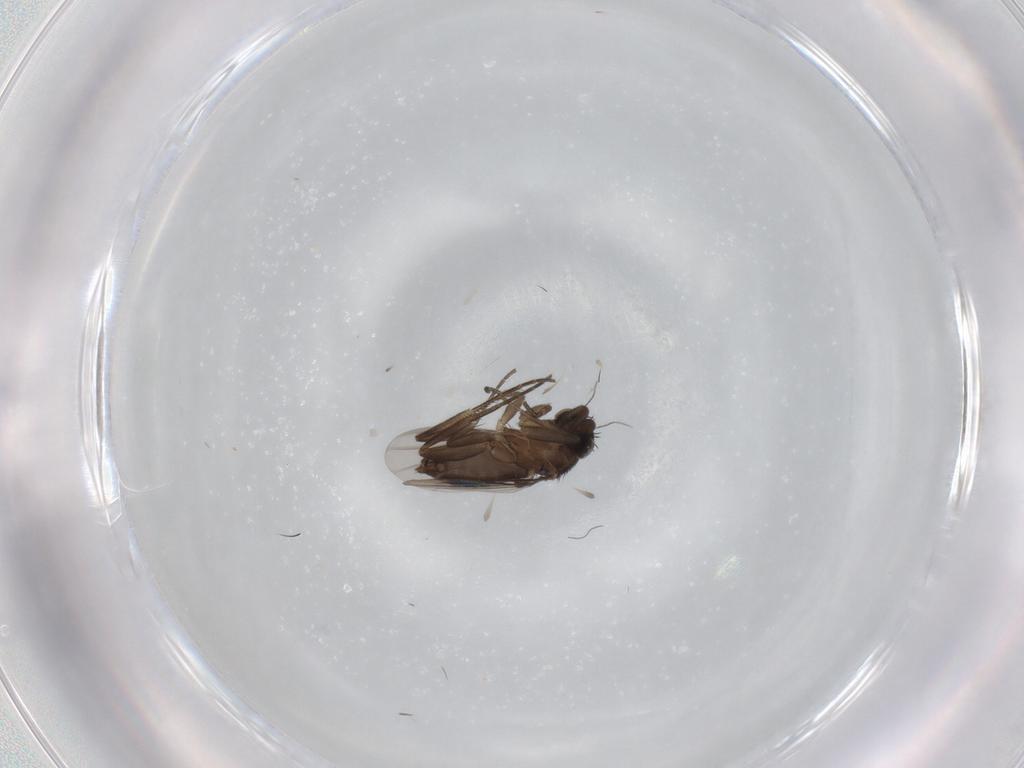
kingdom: Animalia
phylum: Arthropoda
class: Insecta
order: Diptera
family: Phoridae
